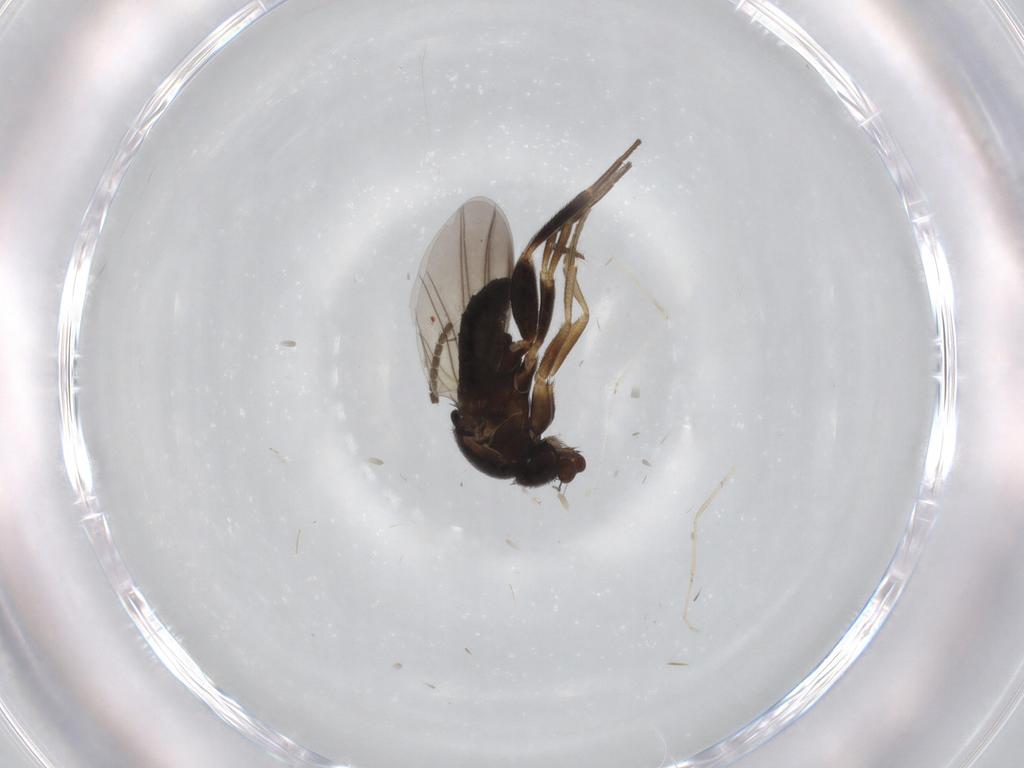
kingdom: Animalia
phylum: Arthropoda
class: Insecta
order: Diptera
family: Cecidomyiidae
